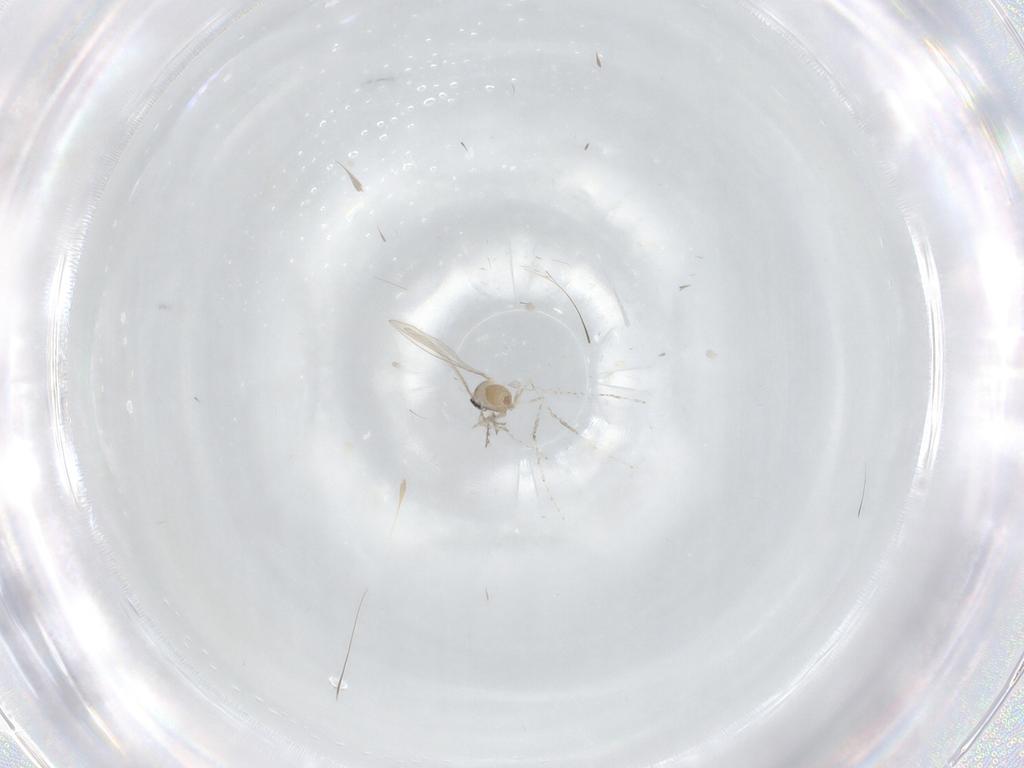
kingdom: Animalia
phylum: Arthropoda
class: Insecta
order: Diptera
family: Cecidomyiidae
